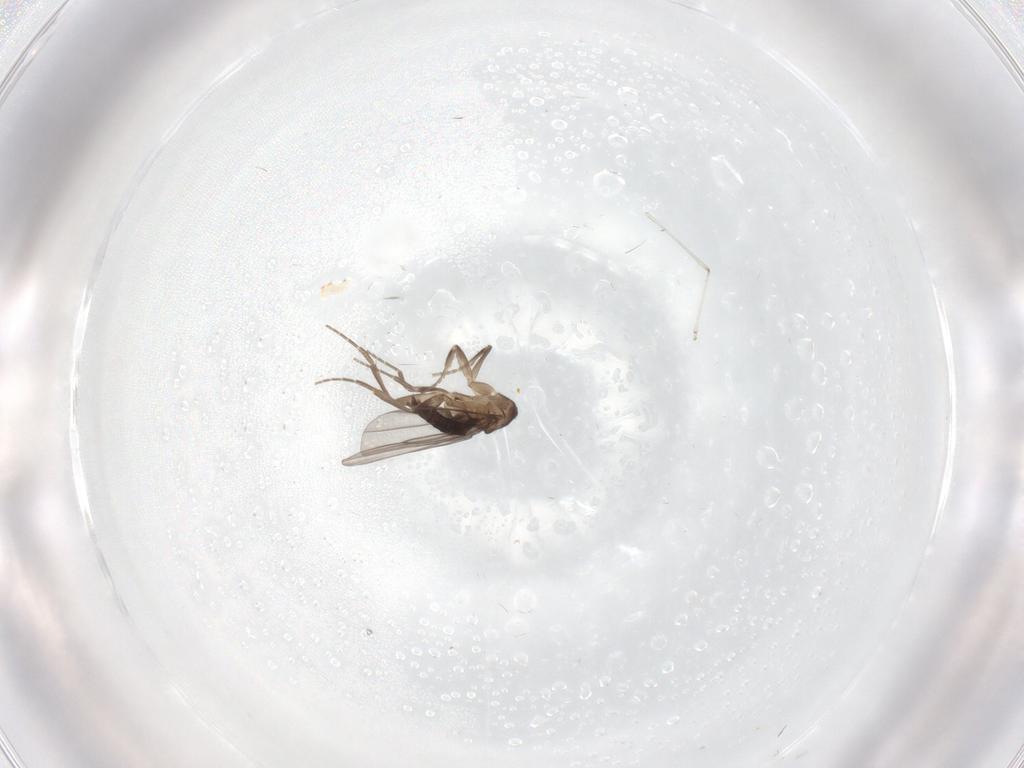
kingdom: Animalia
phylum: Arthropoda
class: Insecta
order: Diptera
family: Cecidomyiidae
